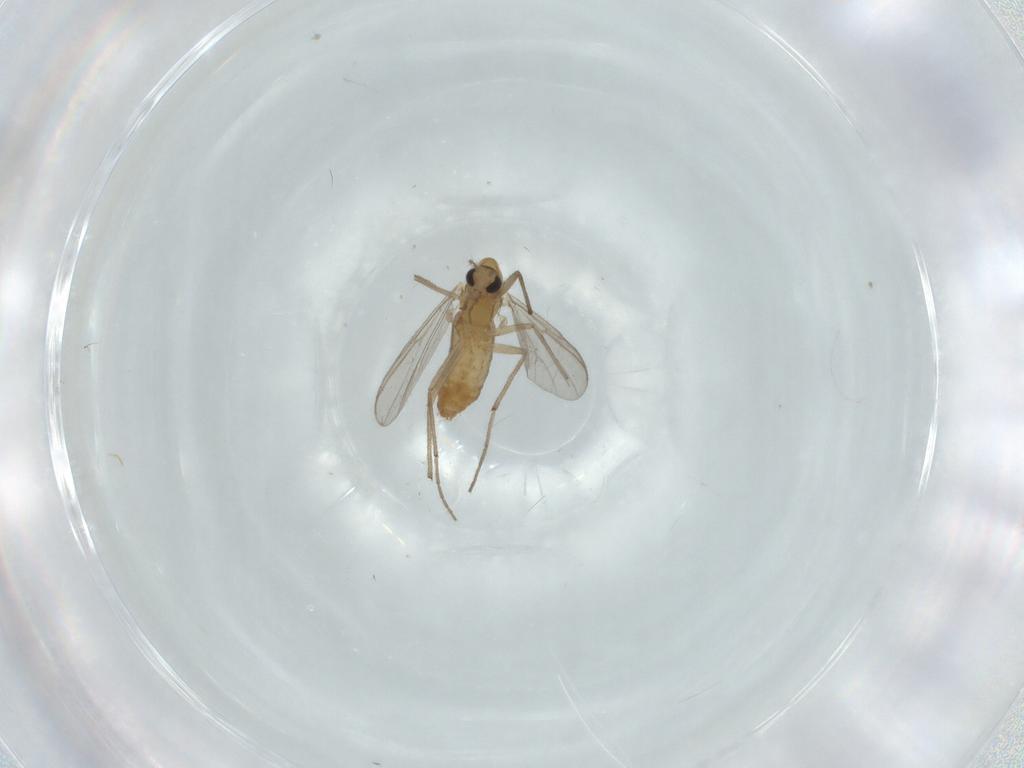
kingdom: Animalia
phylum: Arthropoda
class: Insecta
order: Diptera
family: Chironomidae
